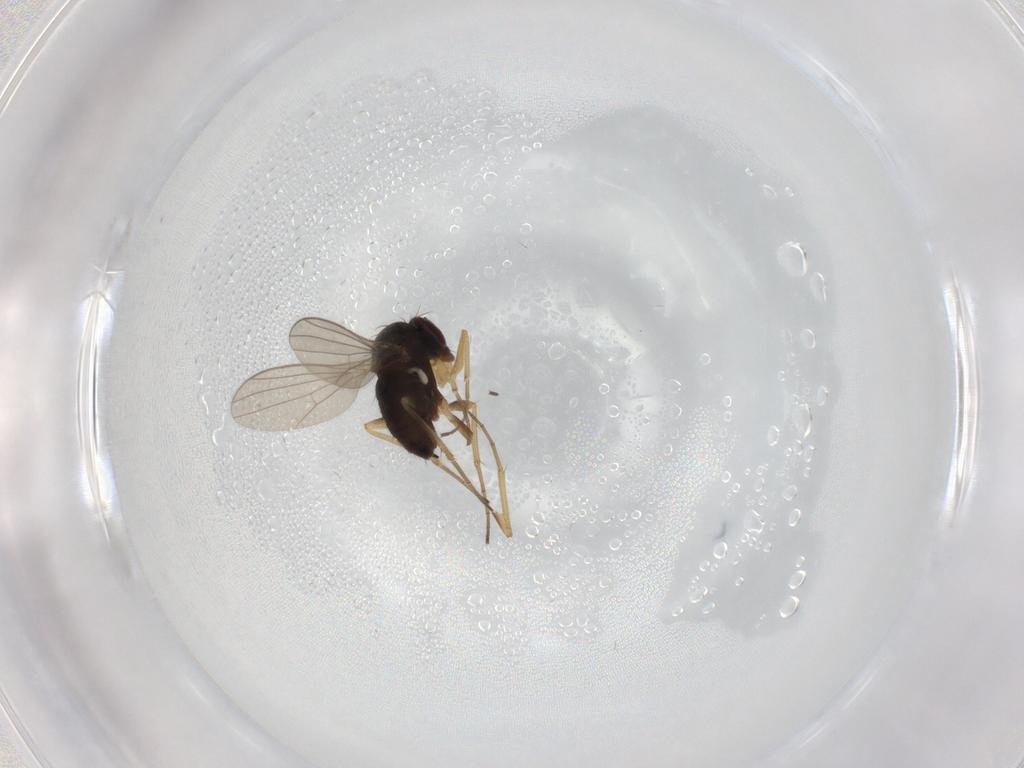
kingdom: Animalia
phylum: Arthropoda
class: Insecta
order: Diptera
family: Dolichopodidae
